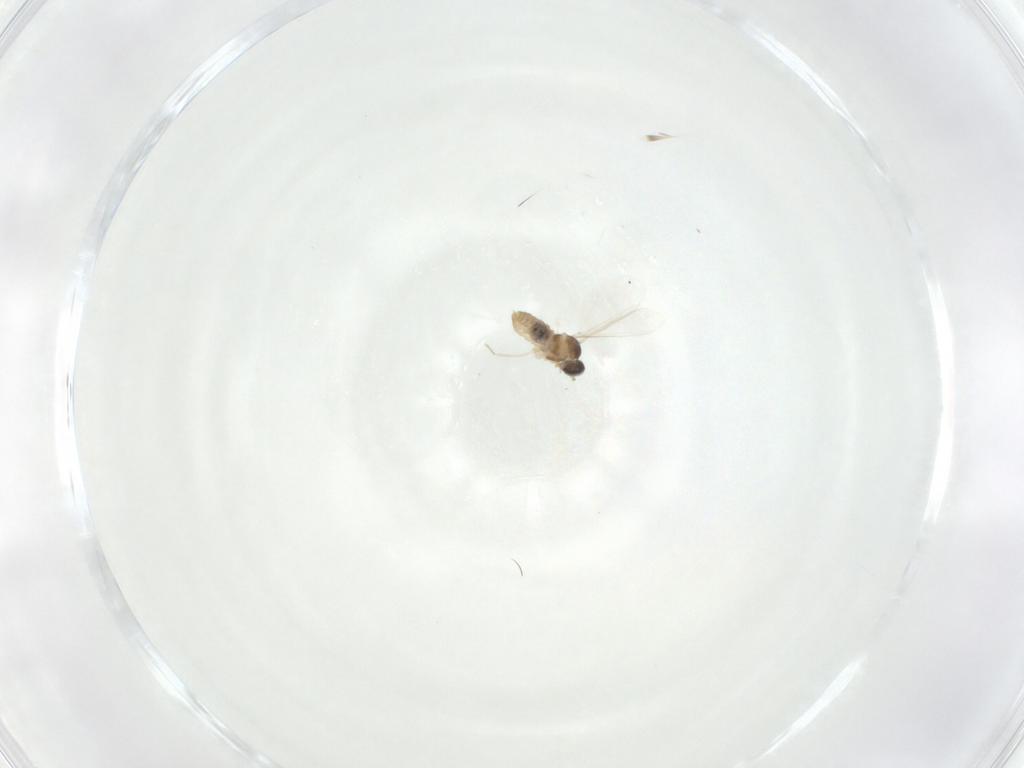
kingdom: Animalia
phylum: Arthropoda
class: Insecta
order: Diptera
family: Cecidomyiidae
